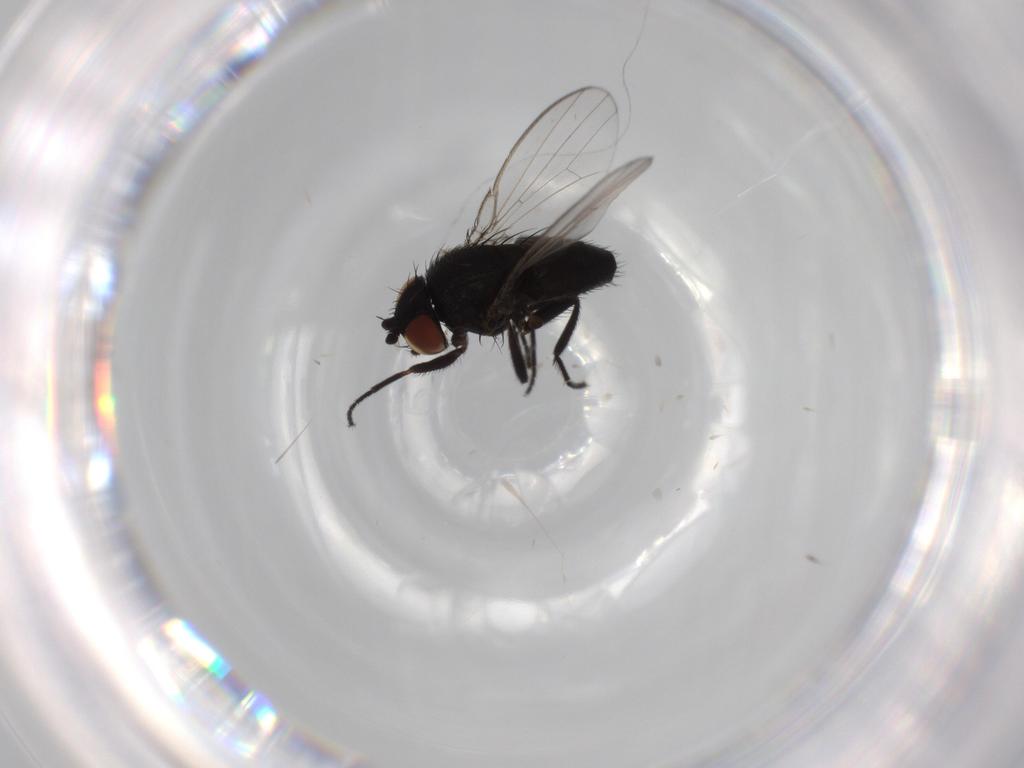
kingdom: Animalia
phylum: Arthropoda
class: Insecta
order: Diptera
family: Milichiidae
